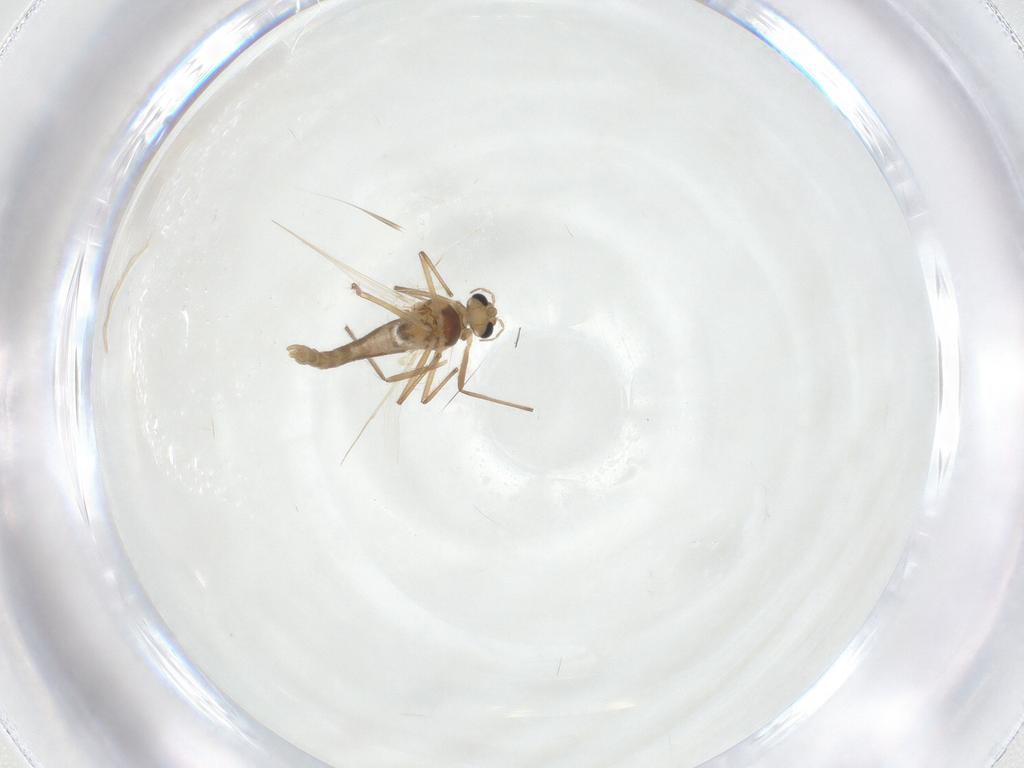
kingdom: Animalia
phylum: Arthropoda
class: Insecta
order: Diptera
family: Chironomidae
